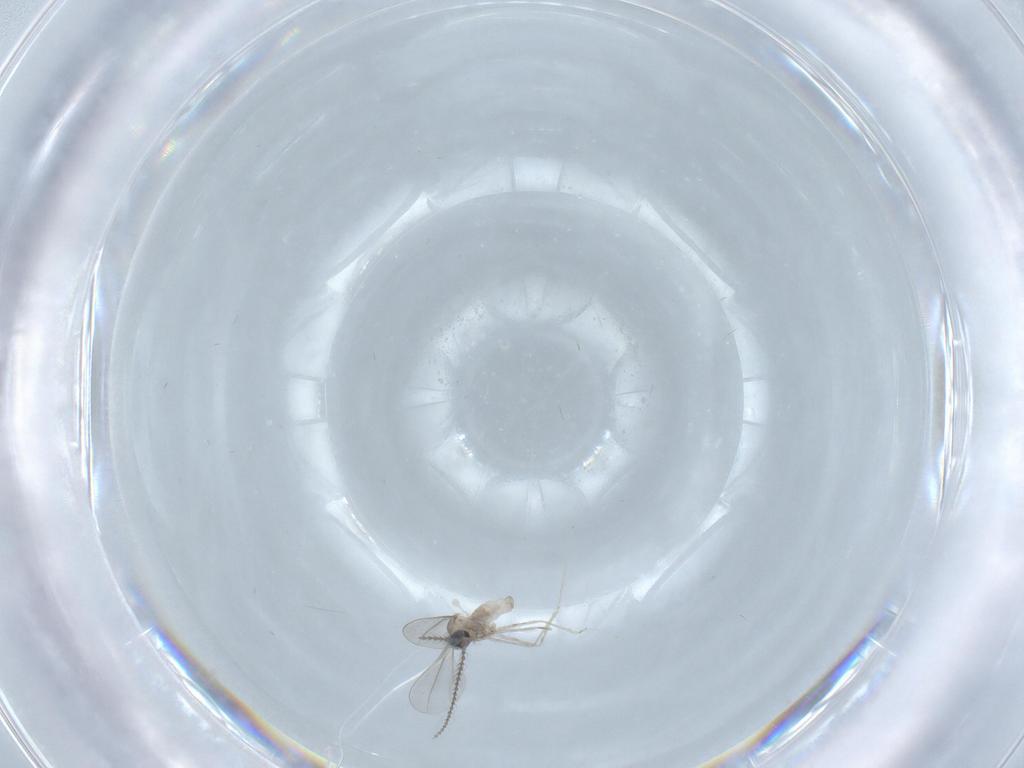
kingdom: Animalia
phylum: Arthropoda
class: Insecta
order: Diptera
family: Cecidomyiidae
